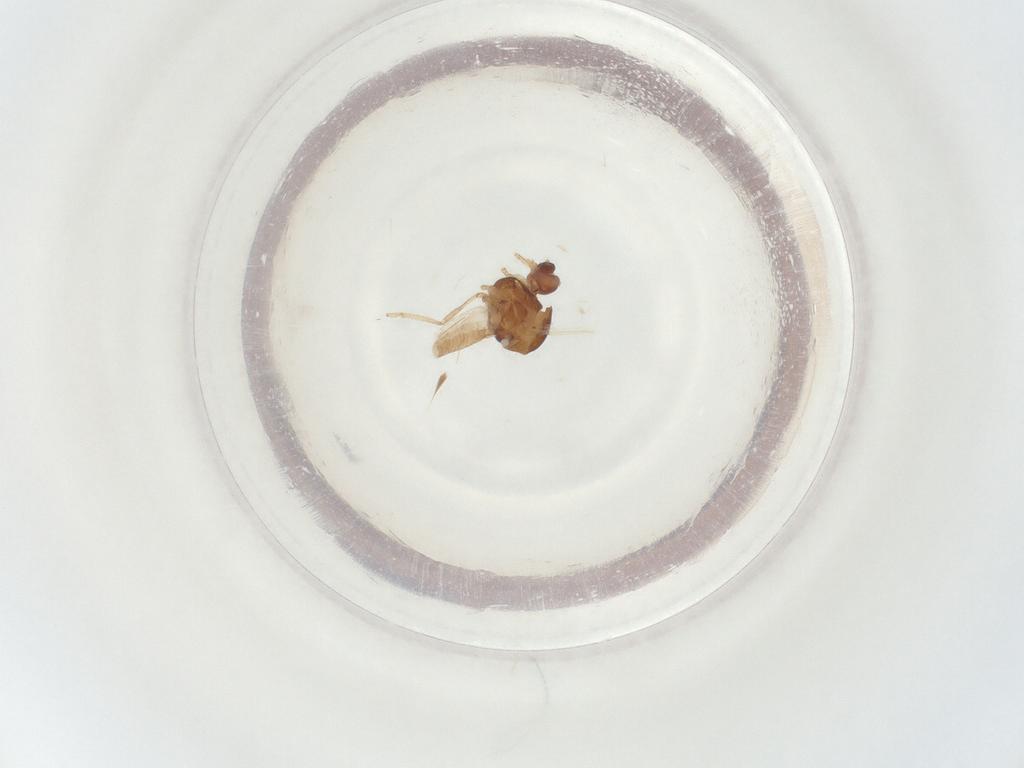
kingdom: Animalia
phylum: Arthropoda
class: Insecta
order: Diptera
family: Ceratopogonidae
